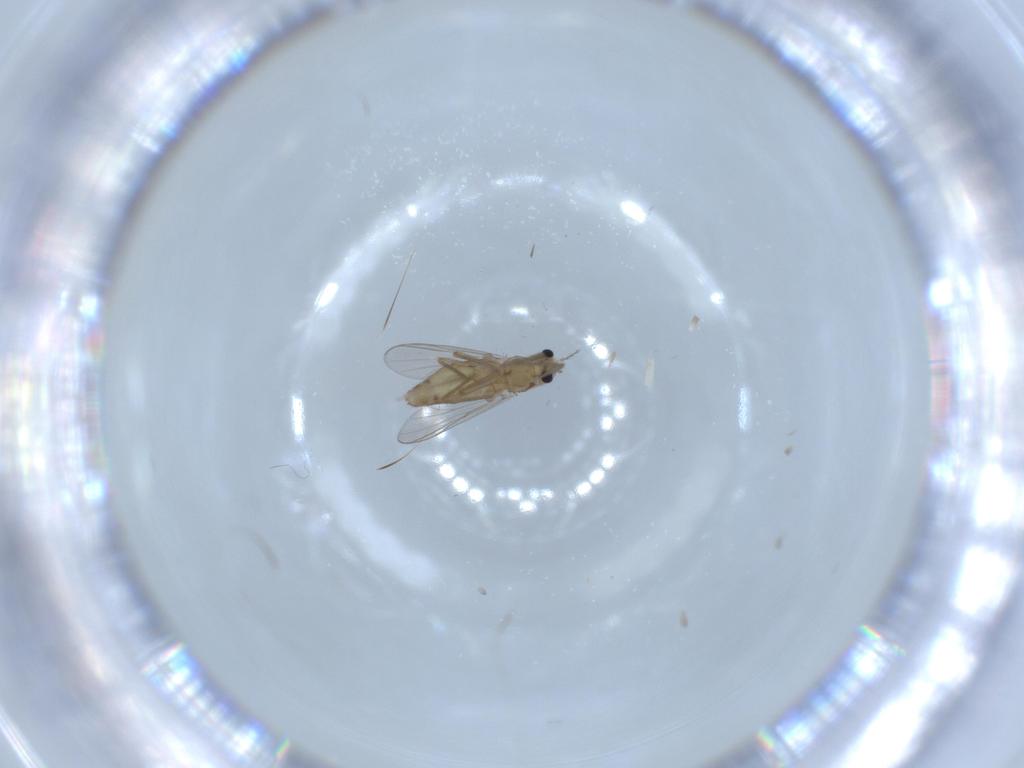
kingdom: Animalia
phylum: Arthropoda
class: Insecta
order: Diptera
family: Chironomidae
